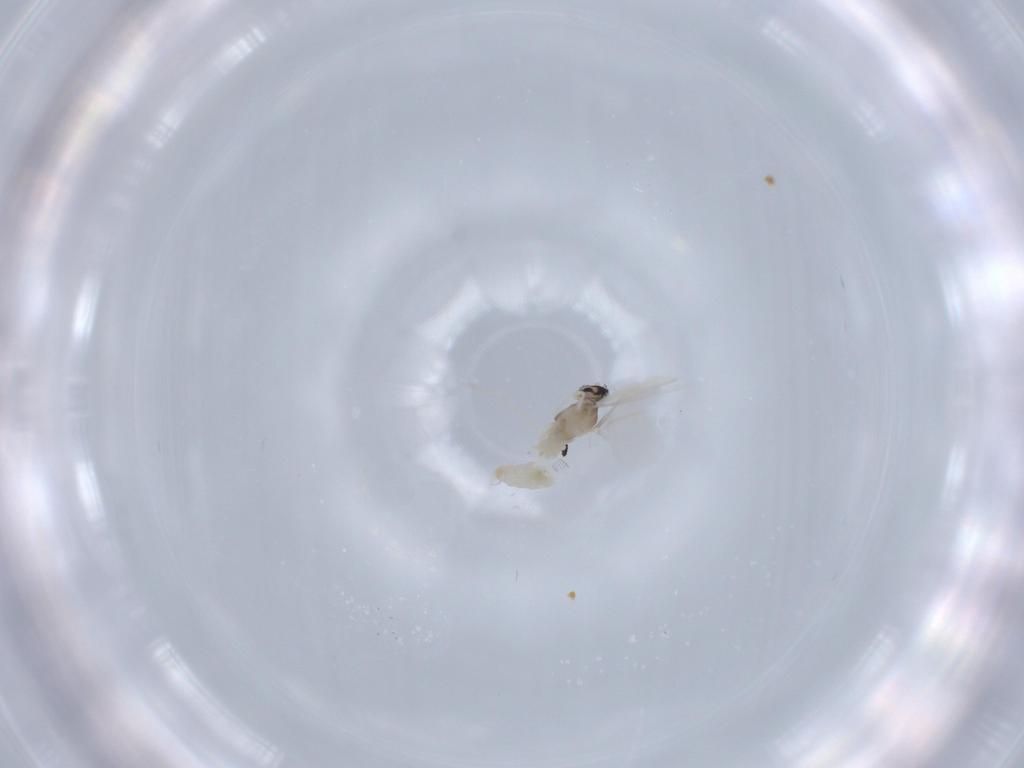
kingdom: Animalia
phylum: Arthropoda
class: Insecta
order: Diptera
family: Cecidomyiidae
